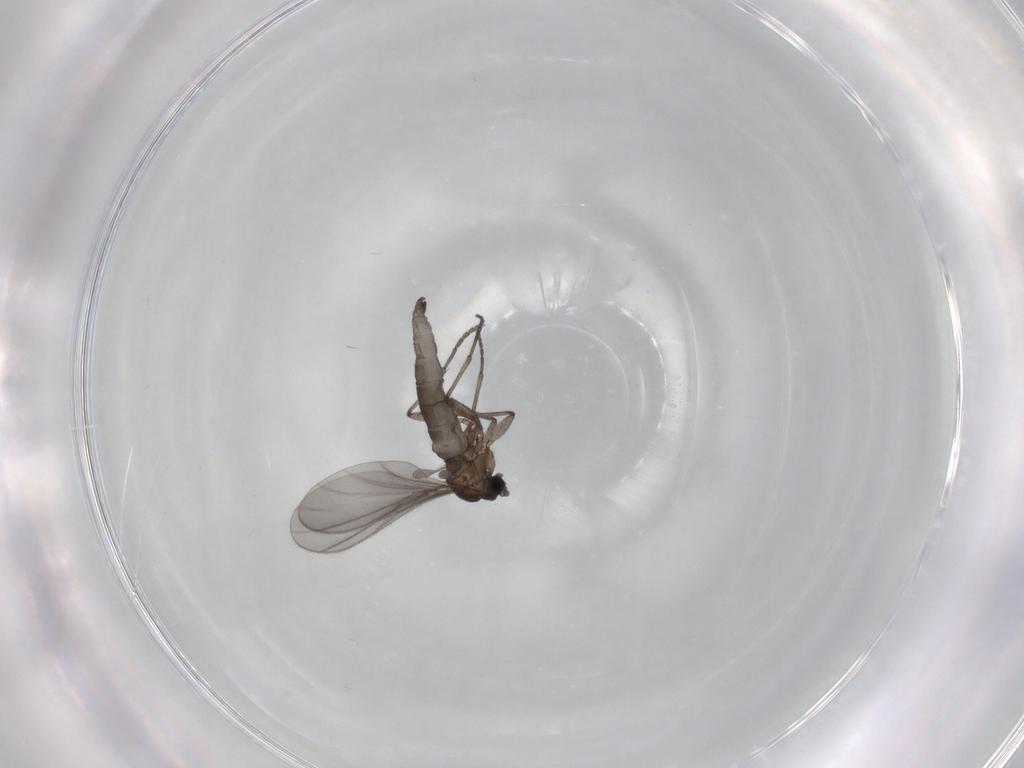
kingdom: Animalia
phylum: Arthropoda
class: Insecta
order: Diptera
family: Sciaridae
